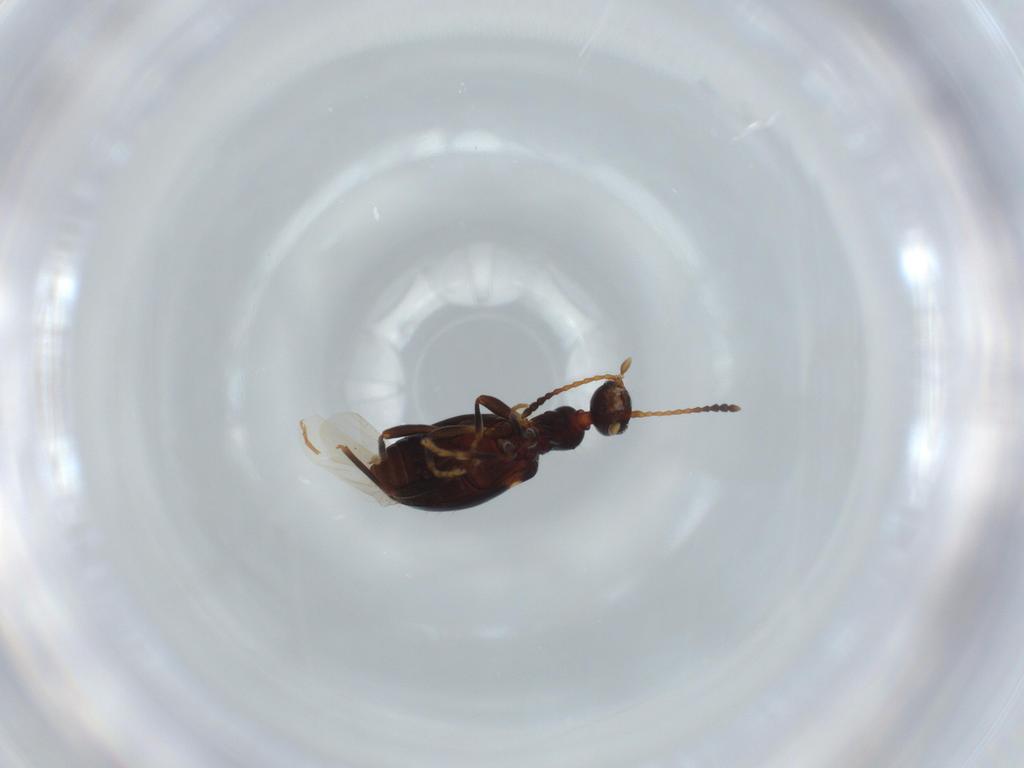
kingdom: Animalia
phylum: Arthropoda
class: Insecta
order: Coleoptera
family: Anthicidae
